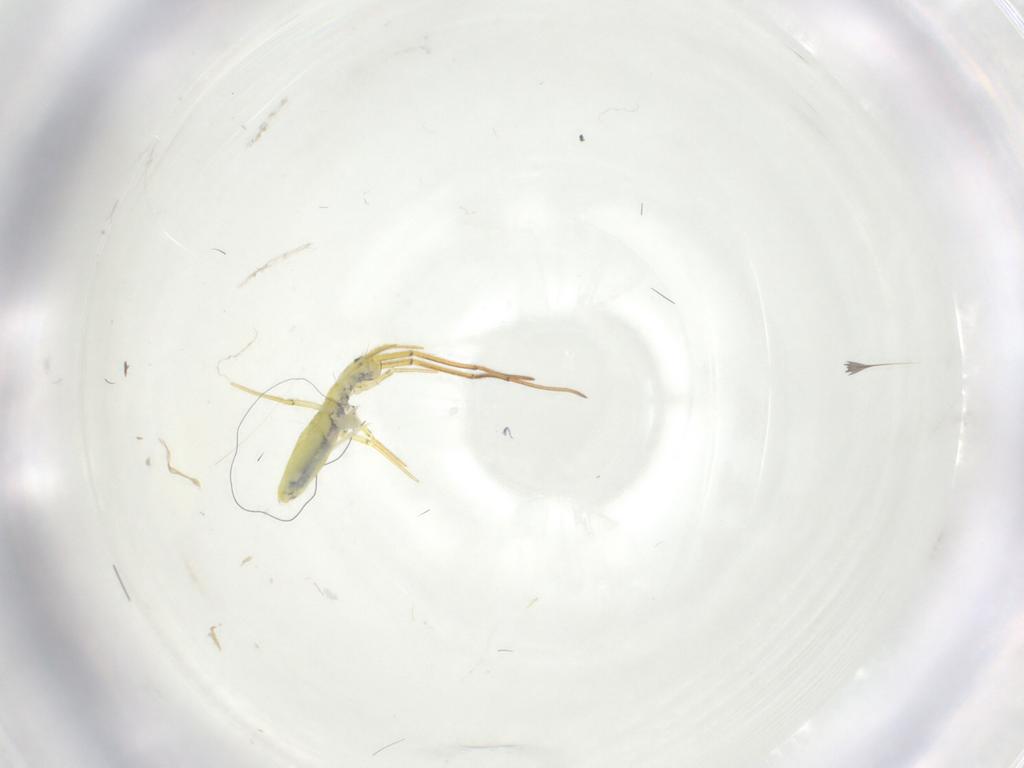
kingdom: Animalia
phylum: Arthropoda
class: Collembola
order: Entomobryomorpha
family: Entomobryidae
